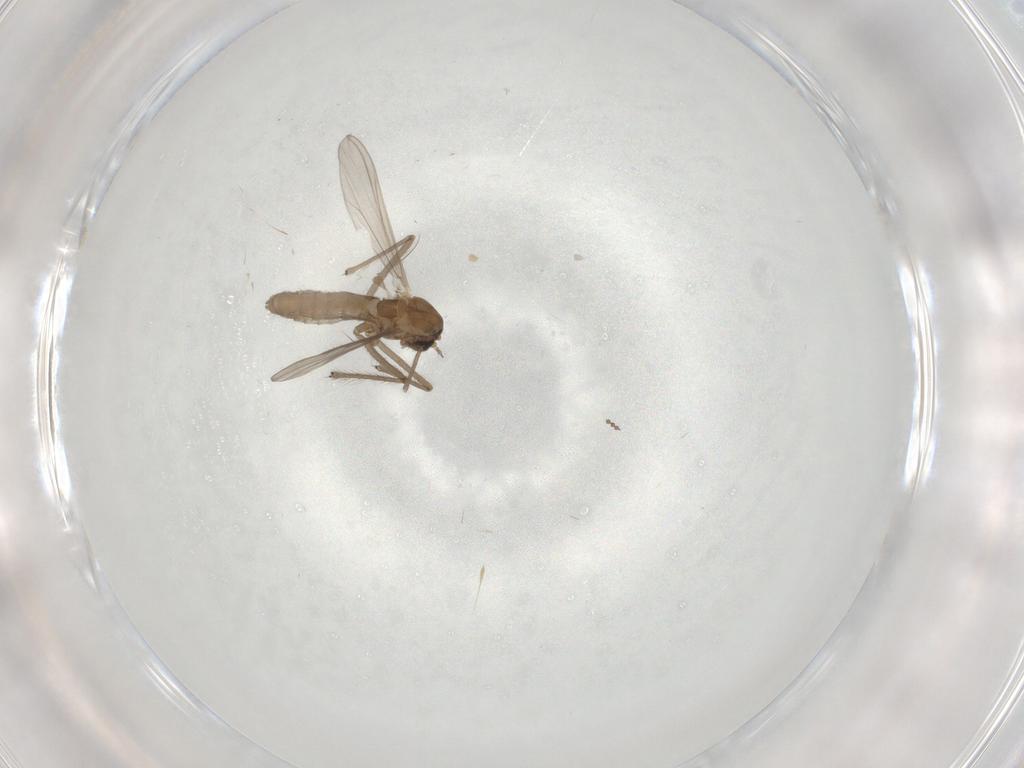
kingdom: Animalia
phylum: Arthropoda
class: Insecta
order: Diptera
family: Chironomidae
